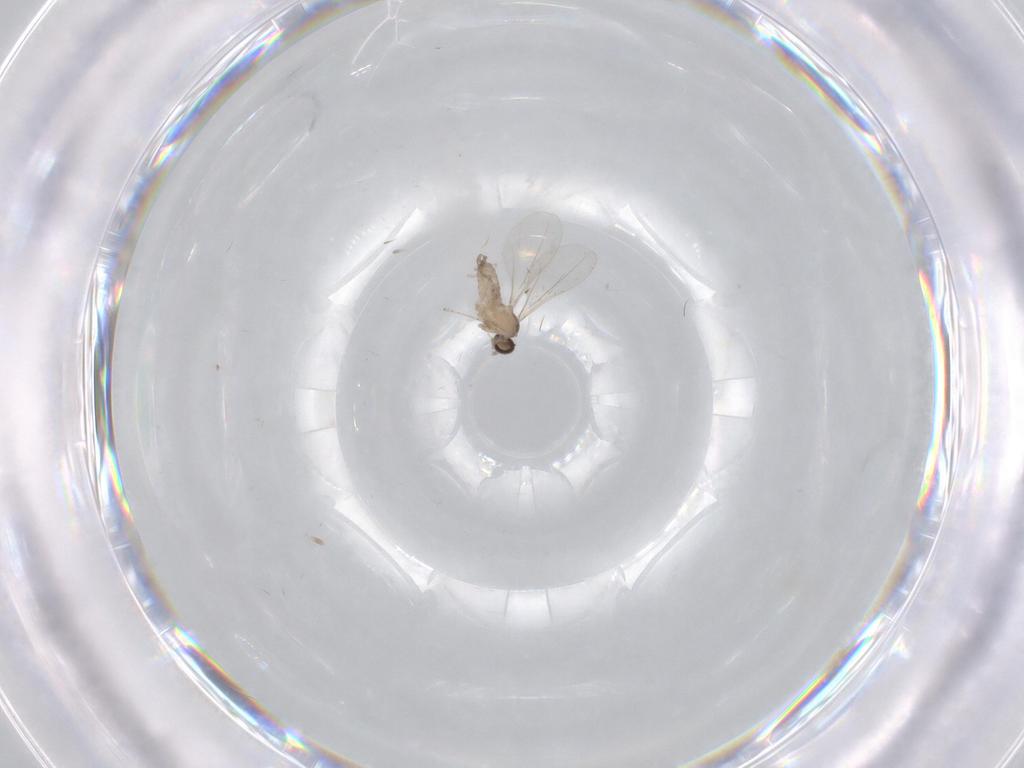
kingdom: Animalia
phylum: Arthropoda
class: Insecta
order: Diptera
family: Cecidomyiidae
